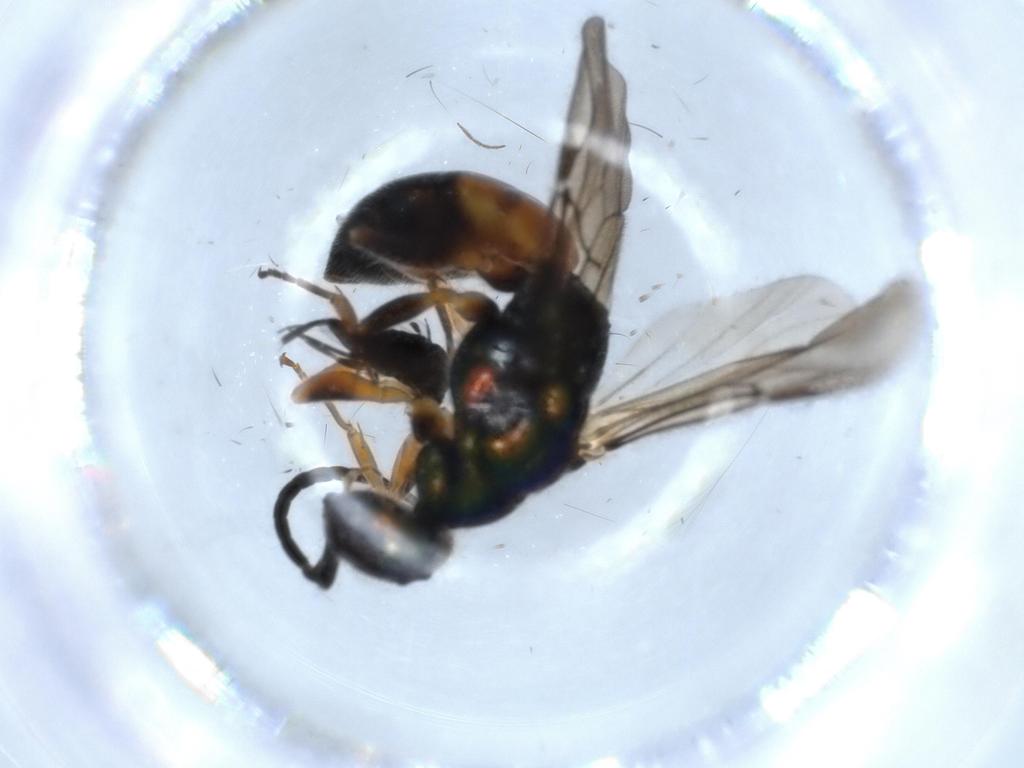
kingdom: Animalia
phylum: Arthropoda
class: Insecta
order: Hymenoptera
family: Chrysididae
